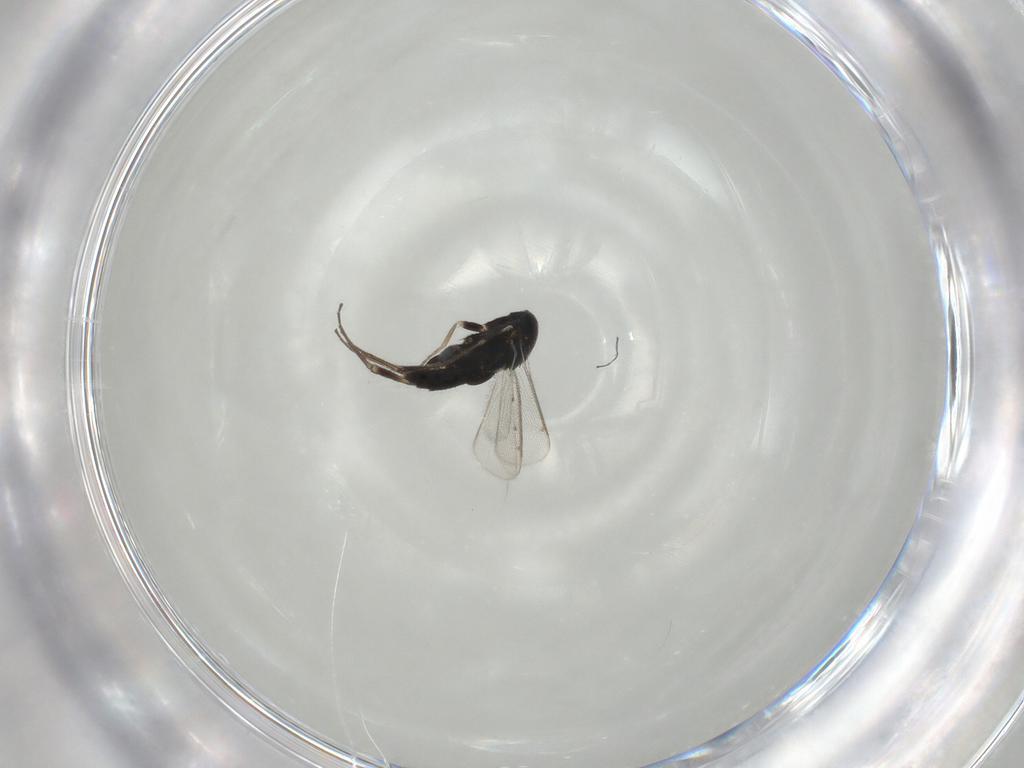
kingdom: Animalia
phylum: Arthropoda
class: Insecta
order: Hymenoptera
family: Eulophidae
